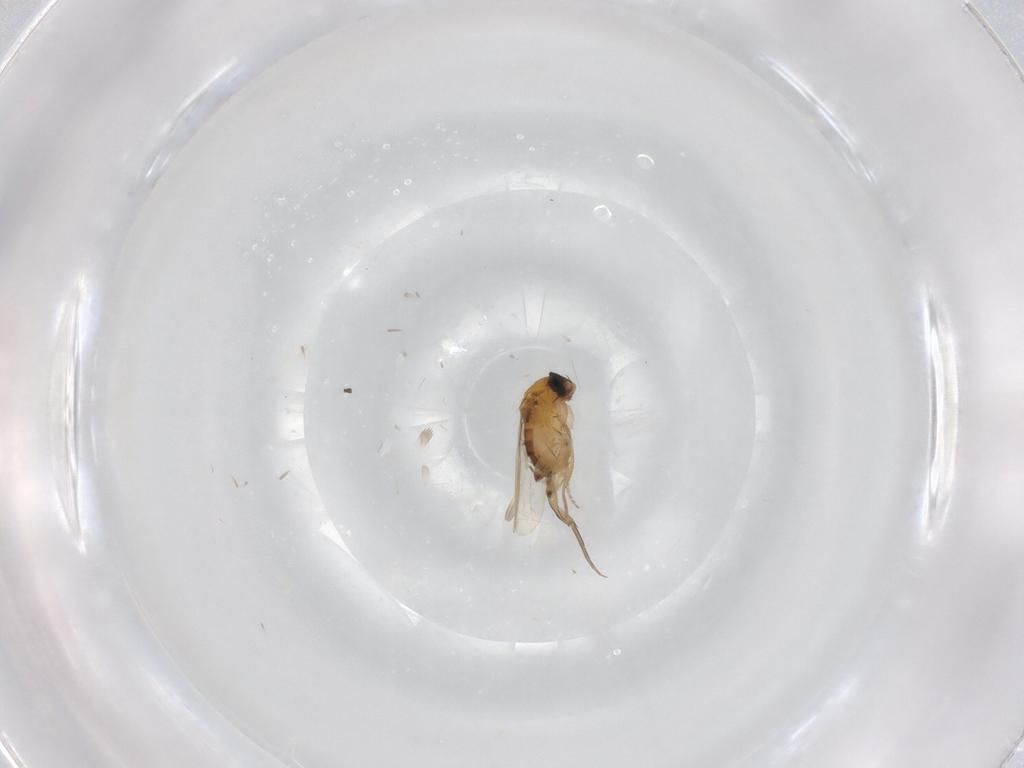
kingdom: Animalia
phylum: Arthropoda
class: Insecta
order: Diptera
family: Phoridae
